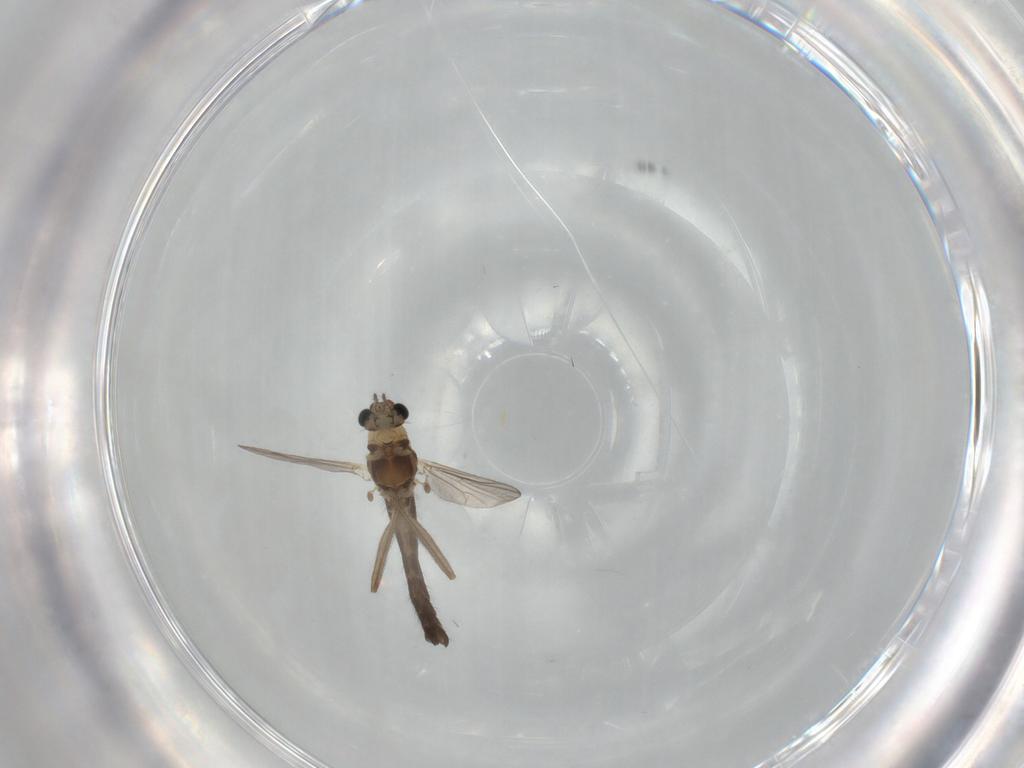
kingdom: Animalia
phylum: Arthropoda
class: Insecta
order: Diptera
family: Chironomidae
